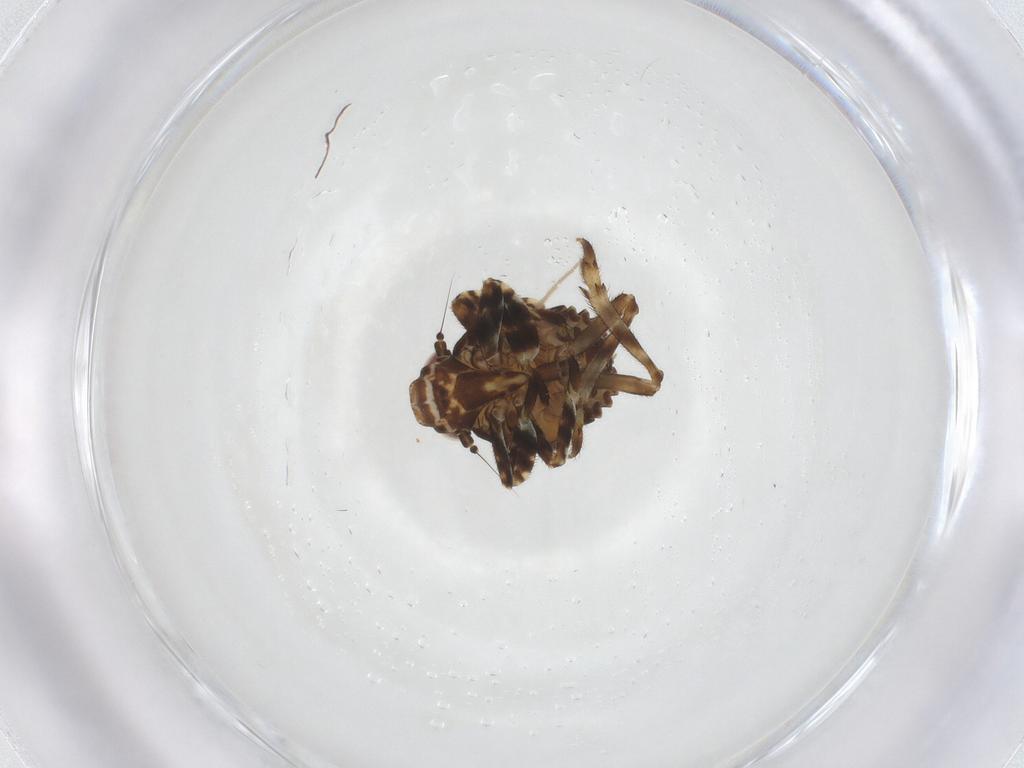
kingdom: Animalia
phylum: Arthropoda
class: Insecta
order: Hemiptera
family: Eurybrachidae
